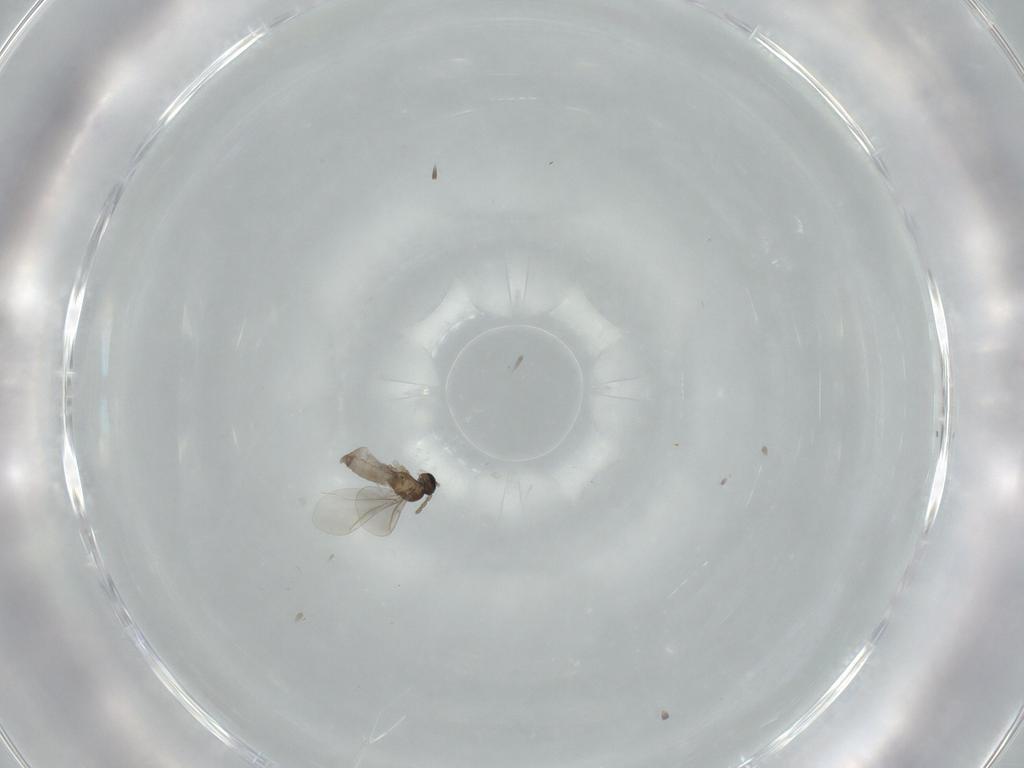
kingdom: Animalia
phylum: Arthropoda
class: Insecta
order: Diptera
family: Cecidomyiidae
